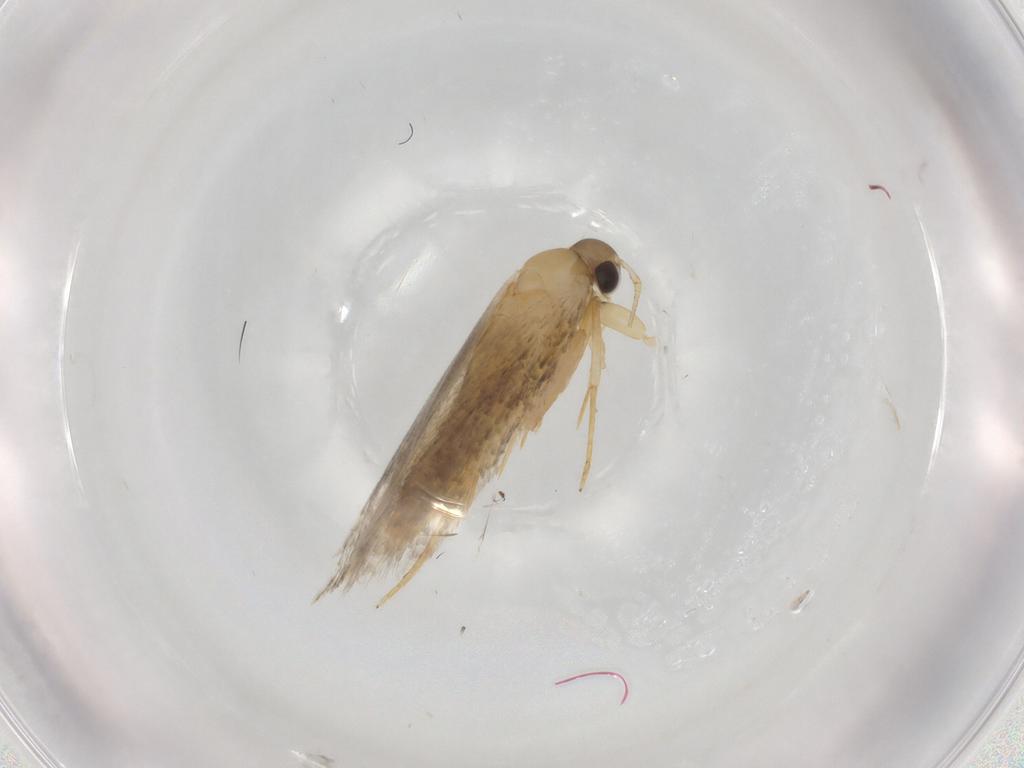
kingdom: Animalia
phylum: Arthropoda
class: Insecta
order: Lepidoptera
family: Autostichidae
